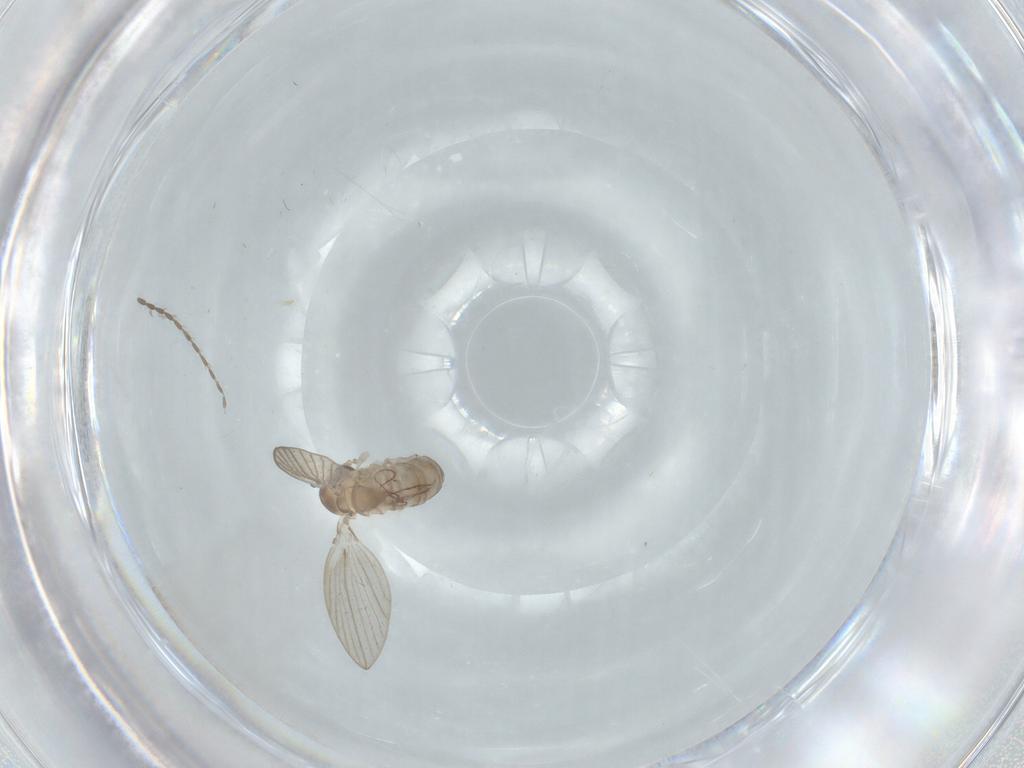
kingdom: Animalia
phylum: Arthropoda
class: Insecta
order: Diptera
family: Psychodidae
